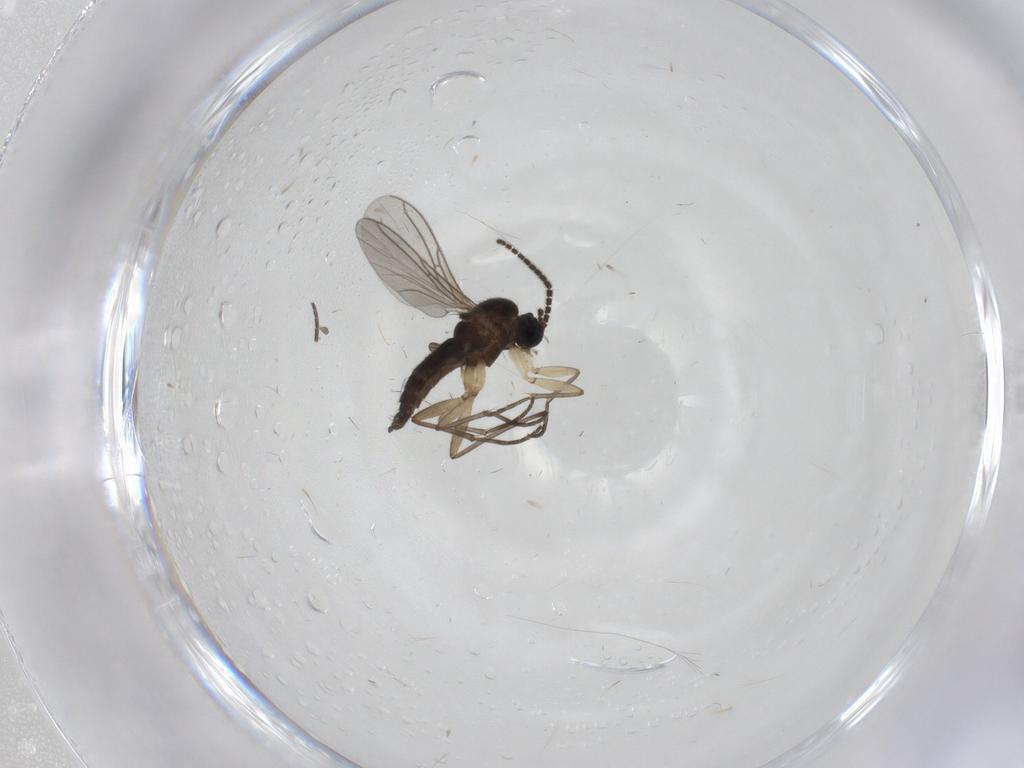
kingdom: Animalia
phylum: Arthropoda
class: Insecta
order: Diptera
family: Sciaridae
